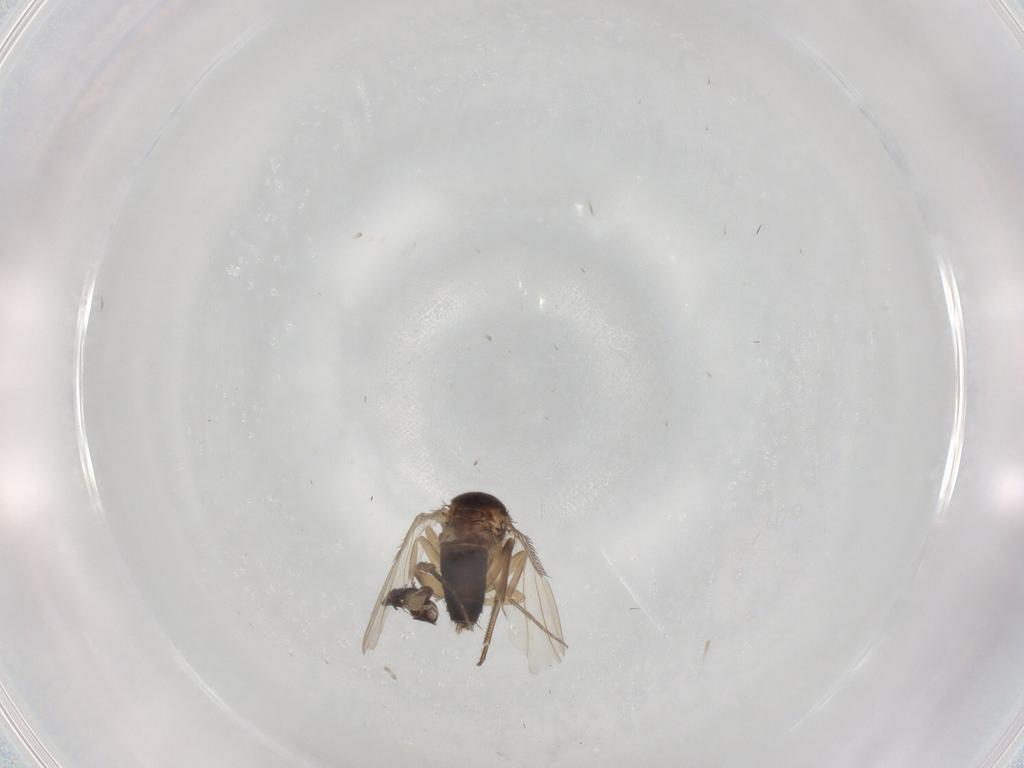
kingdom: Animalia
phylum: Arthropoda
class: Insecta
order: Diptera
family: Phoridae
